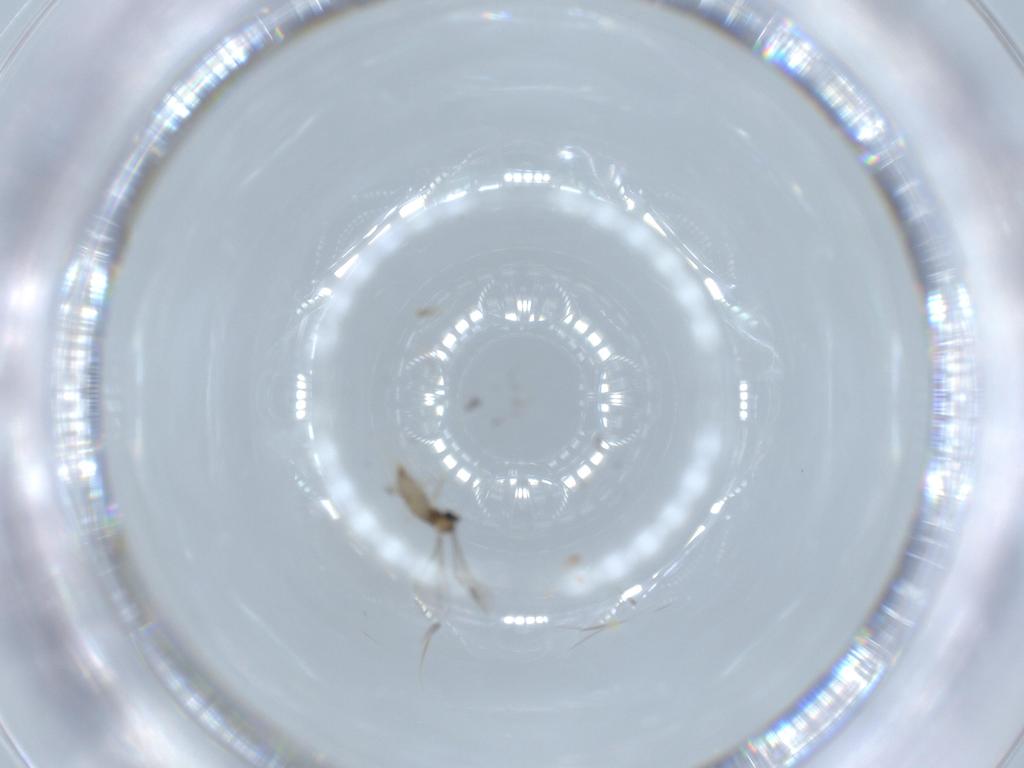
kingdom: Animalia
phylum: Arthropoda
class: Insecta
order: Diptera
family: Cecidomyiidae
